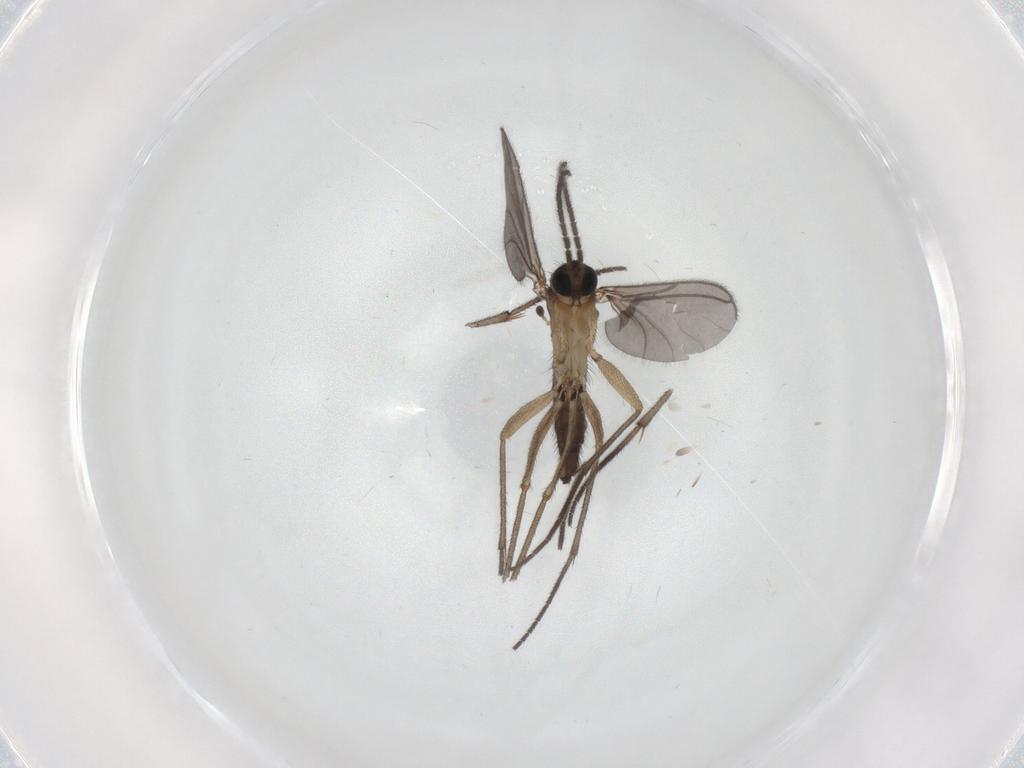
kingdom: Animalia
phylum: Arthropoda
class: Insecta
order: Diptera
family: Sciaridae
